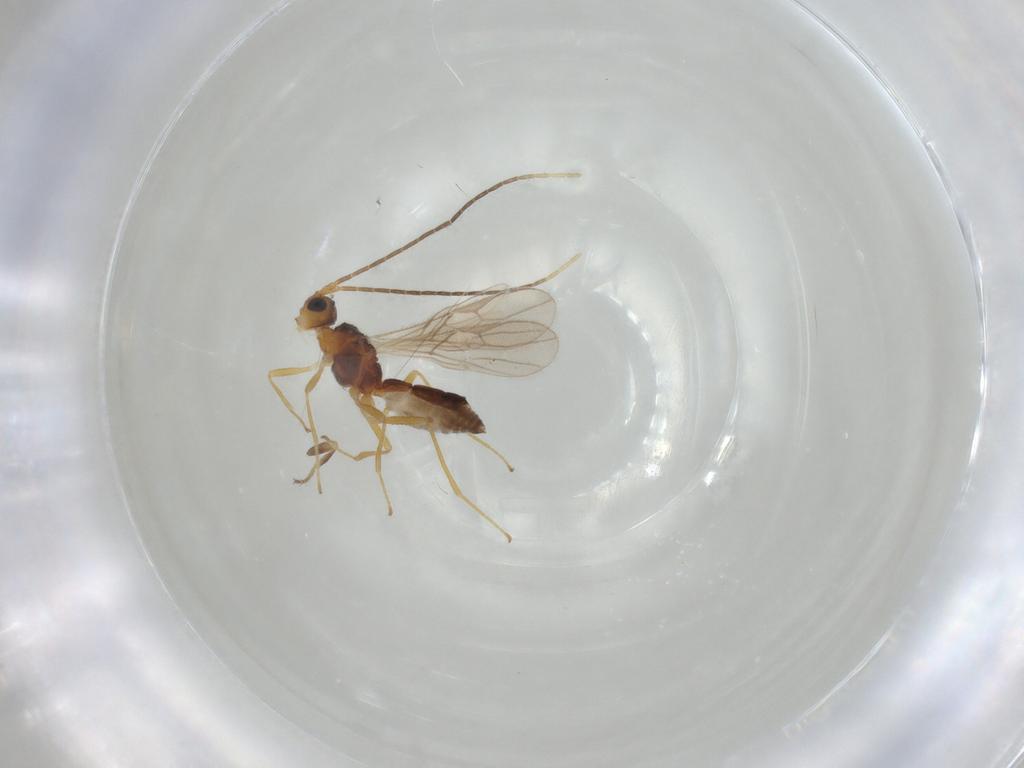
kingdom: Animalia
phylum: Arthropoda
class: Insecta
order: Hymenoptera
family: Braconidae
